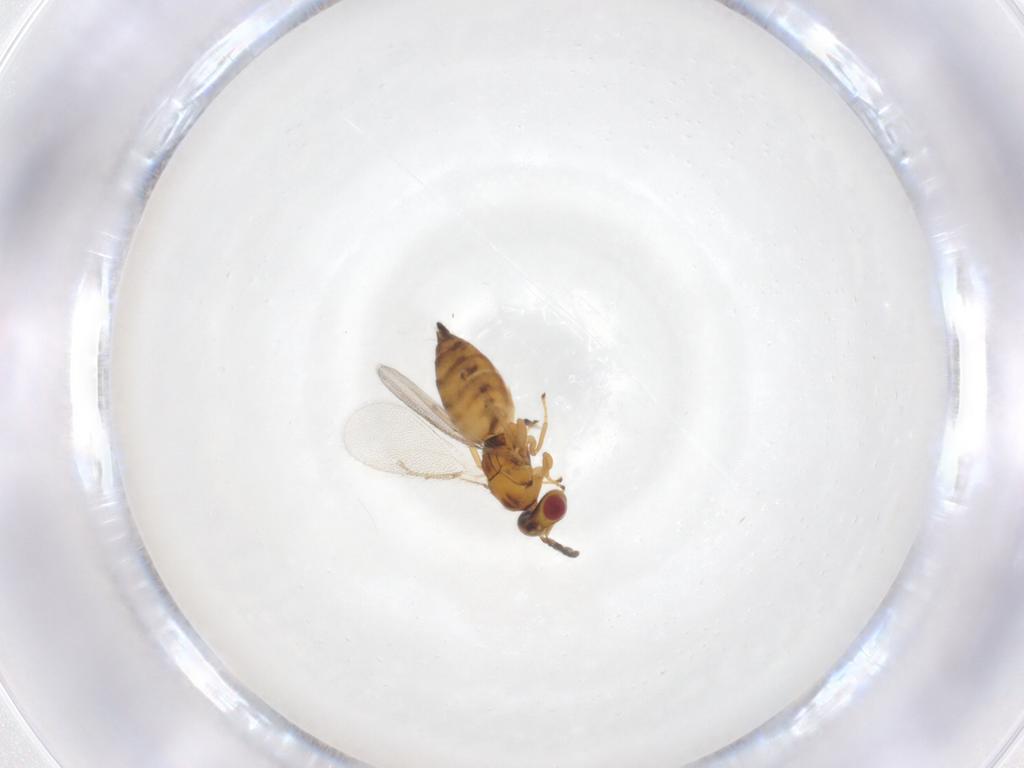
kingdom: Animalia
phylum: Arthropoda
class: Insecta
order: Hymenoptera
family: Eulophidae
